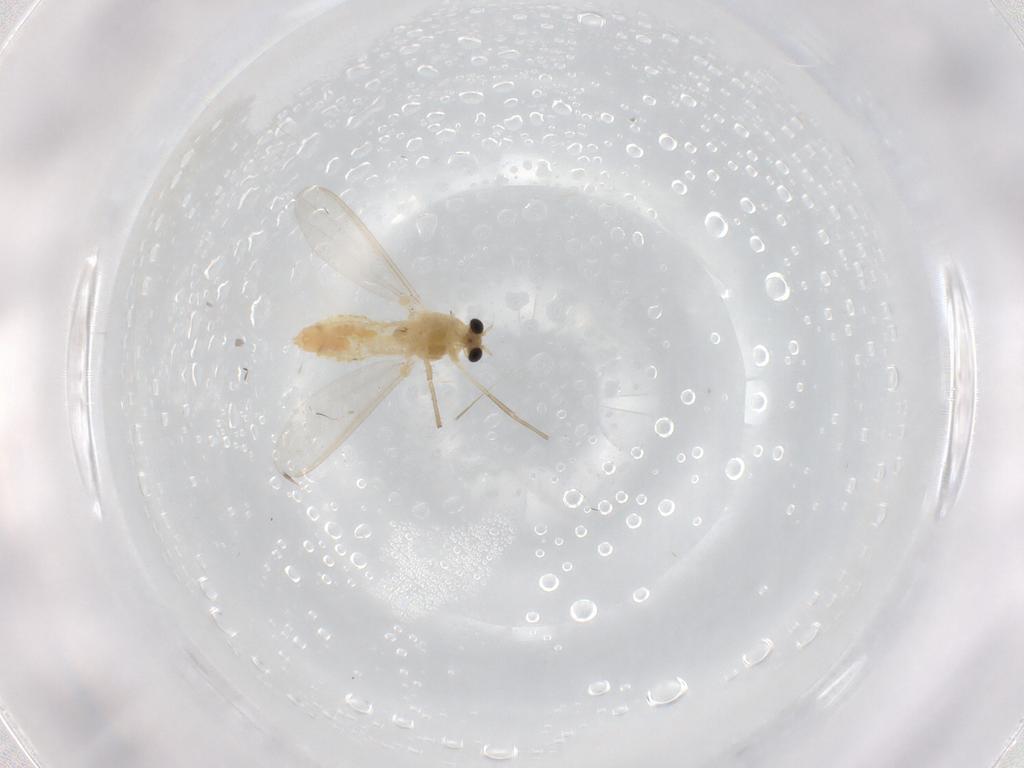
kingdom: Animalia
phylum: Arthropoda
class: Insecta
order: Diptera
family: Chironomidae
